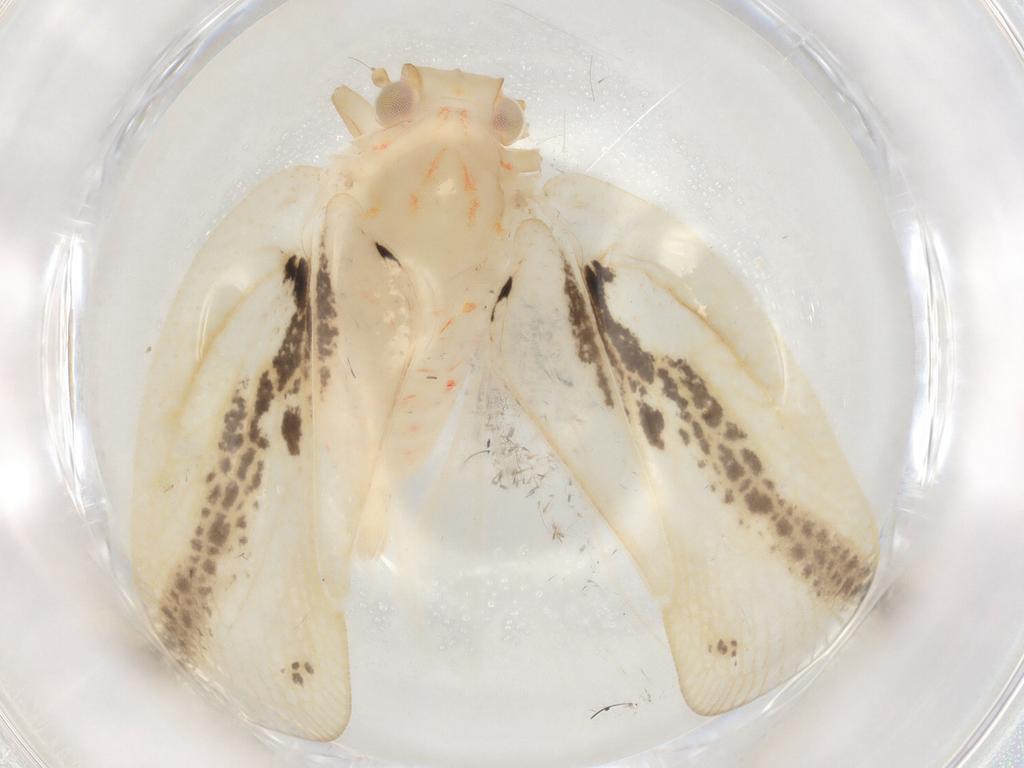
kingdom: Animalia
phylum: Arthropoda
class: Insecta
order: Hemiptera
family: Flatidae
